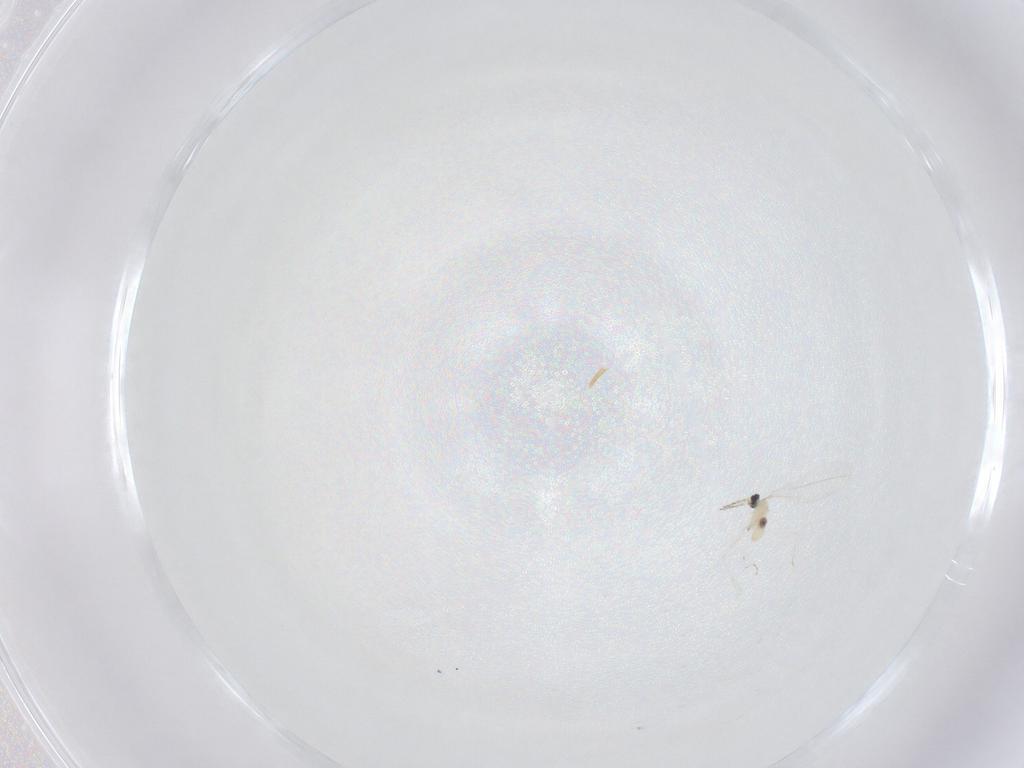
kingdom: Animalia
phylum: Arthropoda
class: Insecta
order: Diptera
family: Cecidomyiidae
